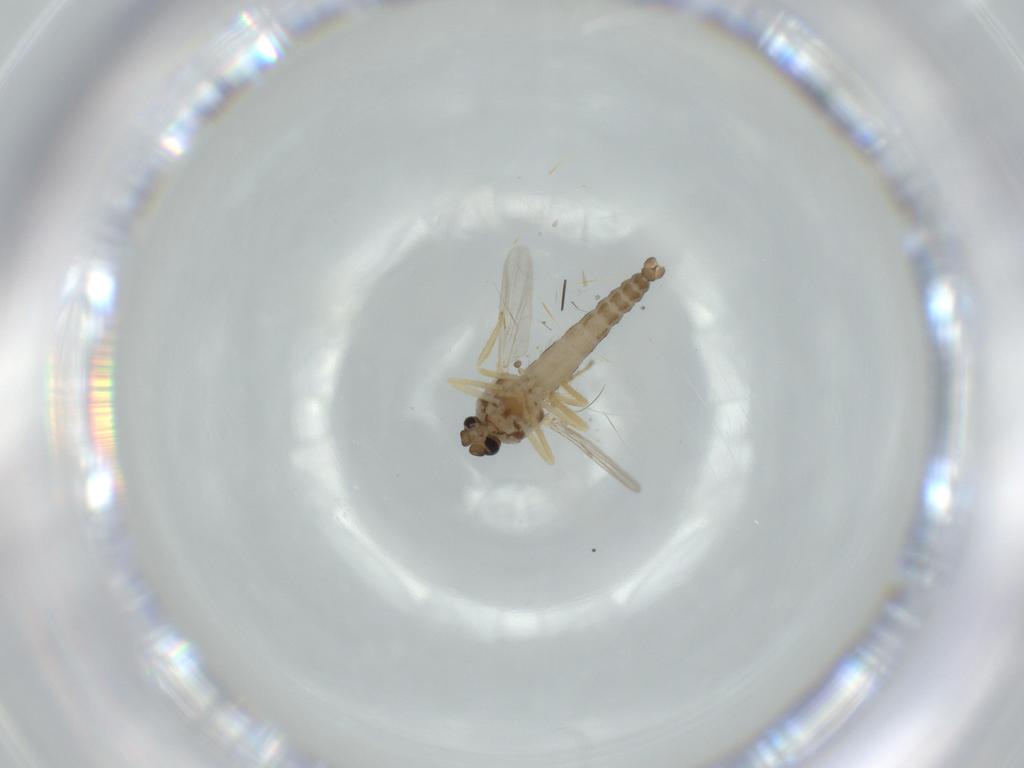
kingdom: Animalia
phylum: Arthropoda
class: Insecta
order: Diptera
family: Ceratopogonidae
